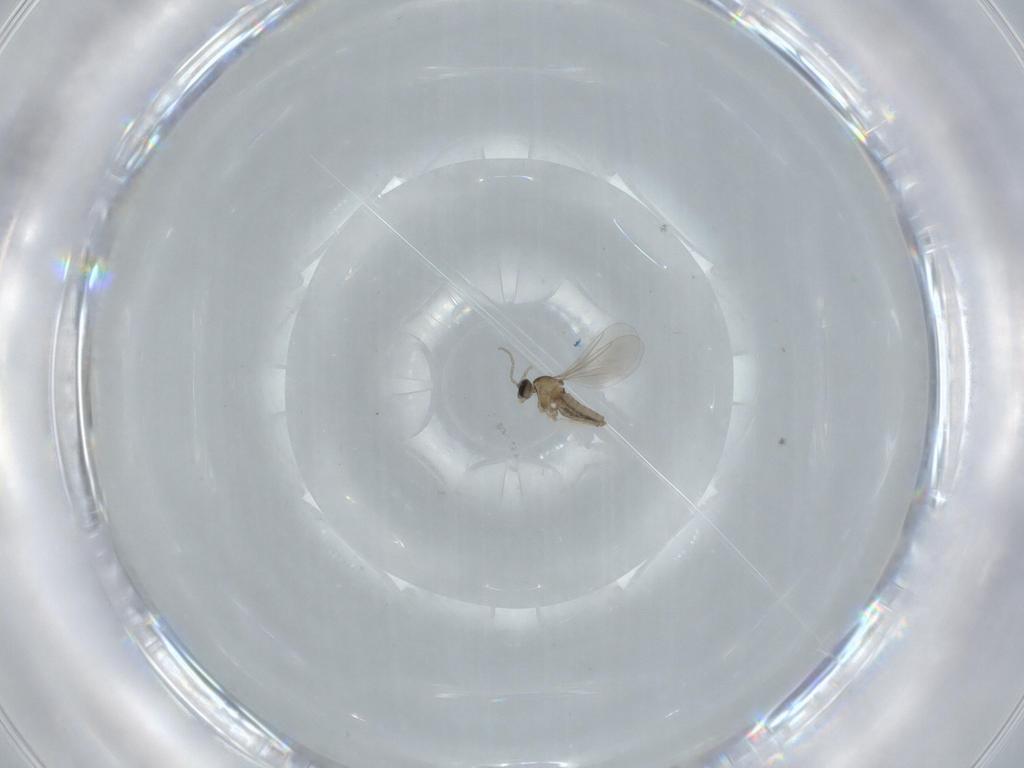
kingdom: Animalia
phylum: Arthropoda
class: Insecta
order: Diptera
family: Cecidomyiidae
